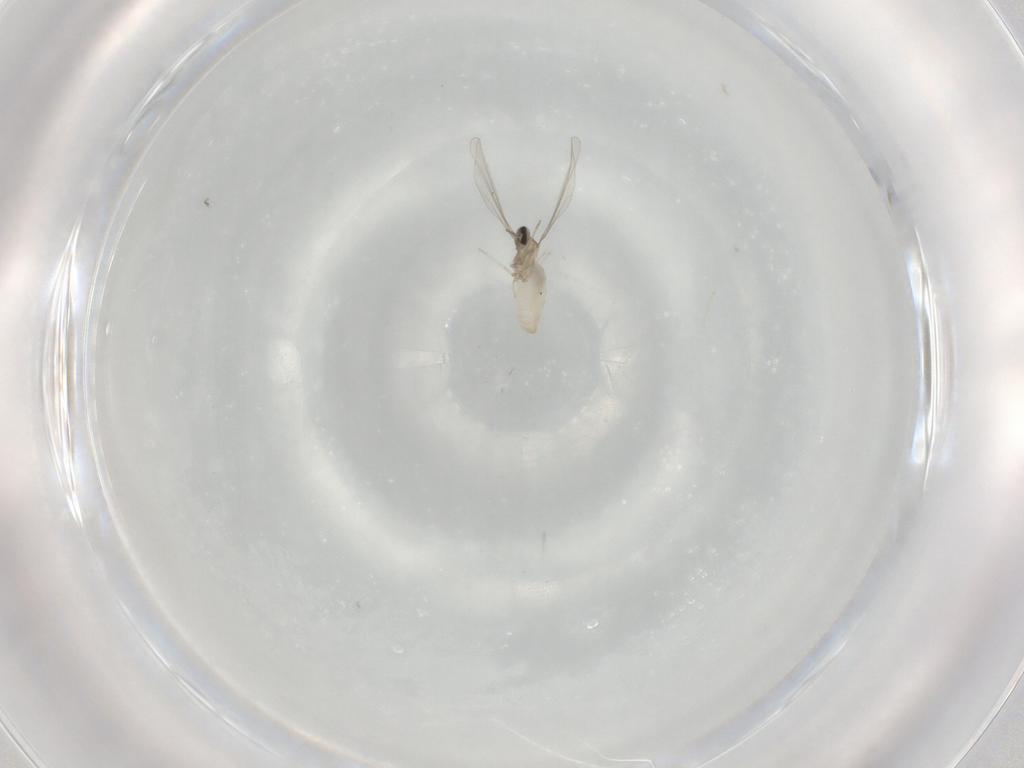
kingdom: Animalia
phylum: Arthropoda
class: Insecta
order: Diptera
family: Cecidomyiidae
